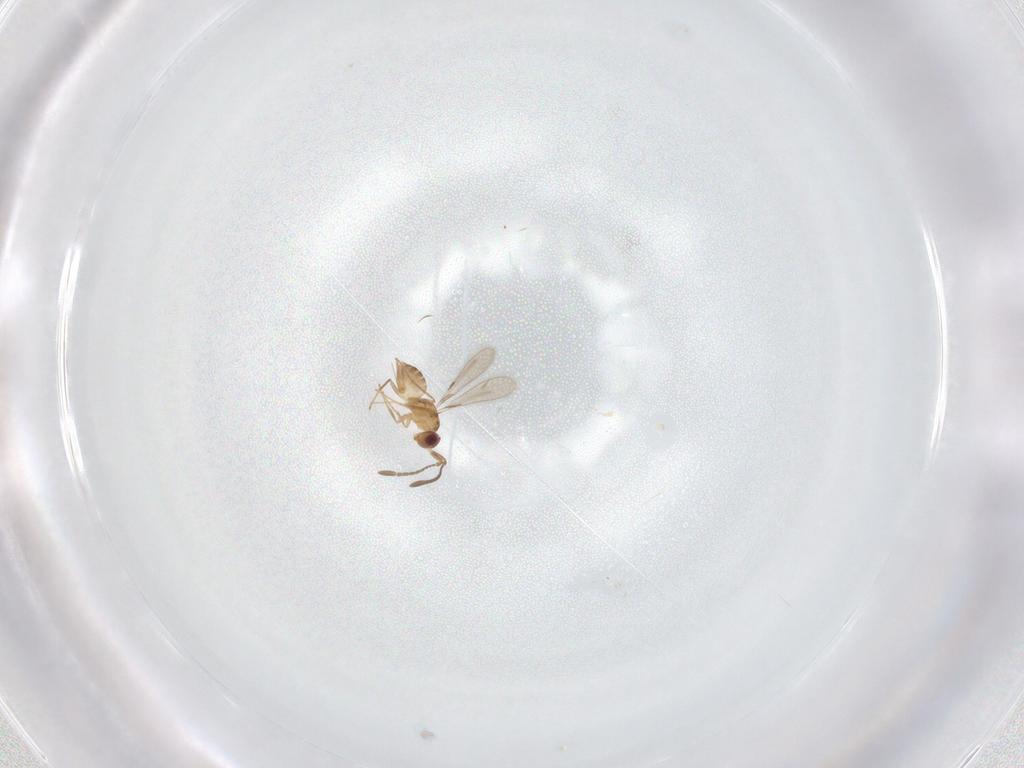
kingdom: Animalia
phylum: Arthropoda
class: Insecta
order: Hymenoptera
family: Mymaridae
